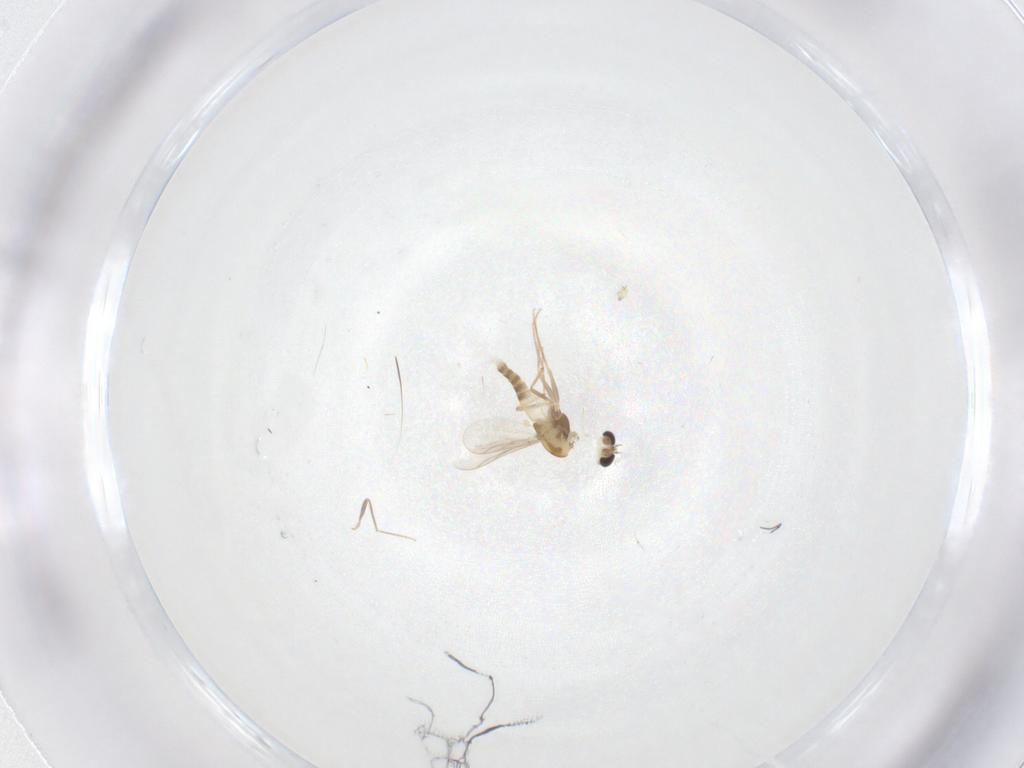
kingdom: Animalia
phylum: Arthropoda
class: Insecta
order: Diptera
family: Chironomidae
